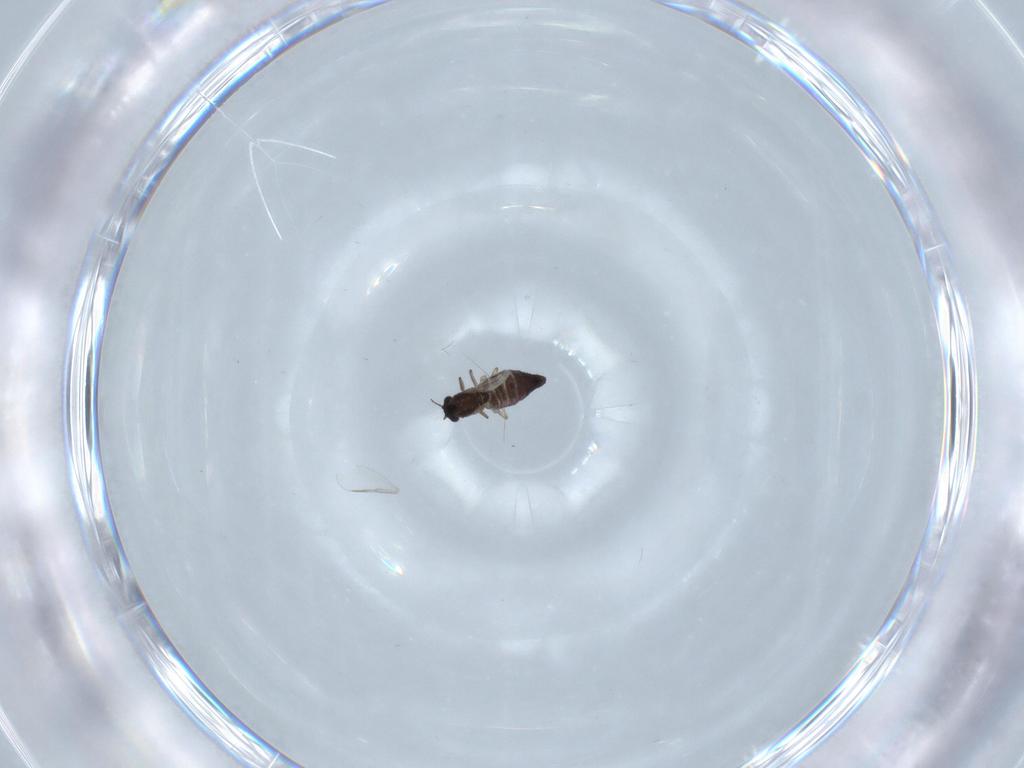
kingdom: Animalia
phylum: Arthropoda
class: Insecta
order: Diptera
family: Chironomidae
